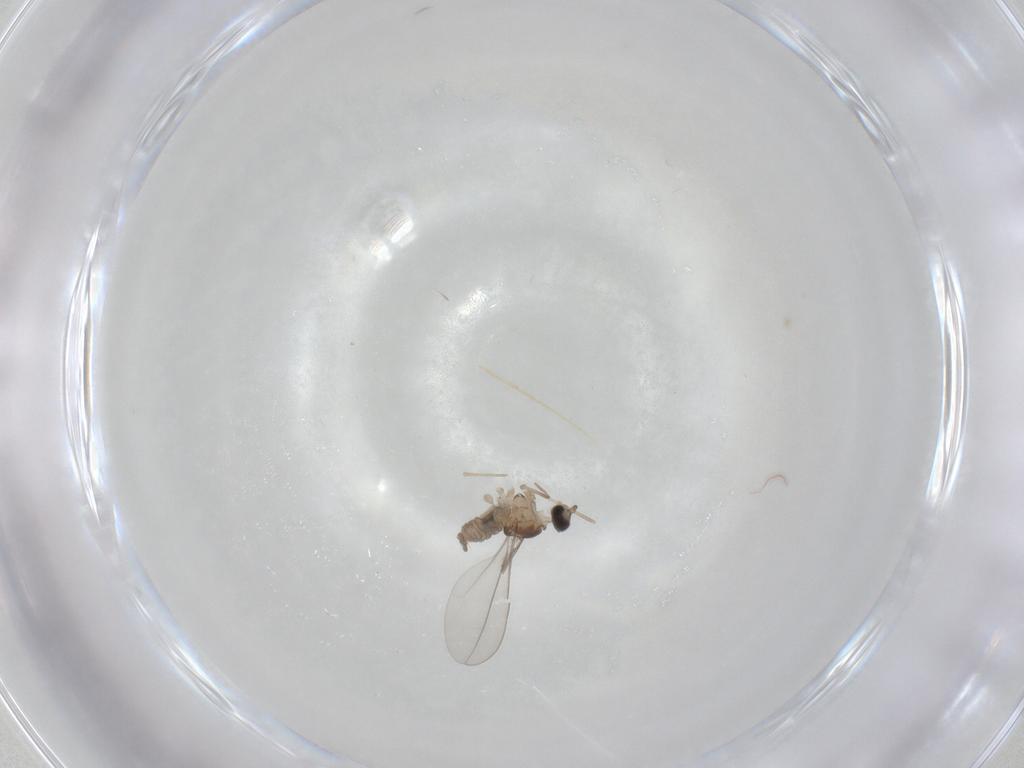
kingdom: Animalia
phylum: Arthropoda
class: Insecta
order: Diptera
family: Cecidomyiidae
